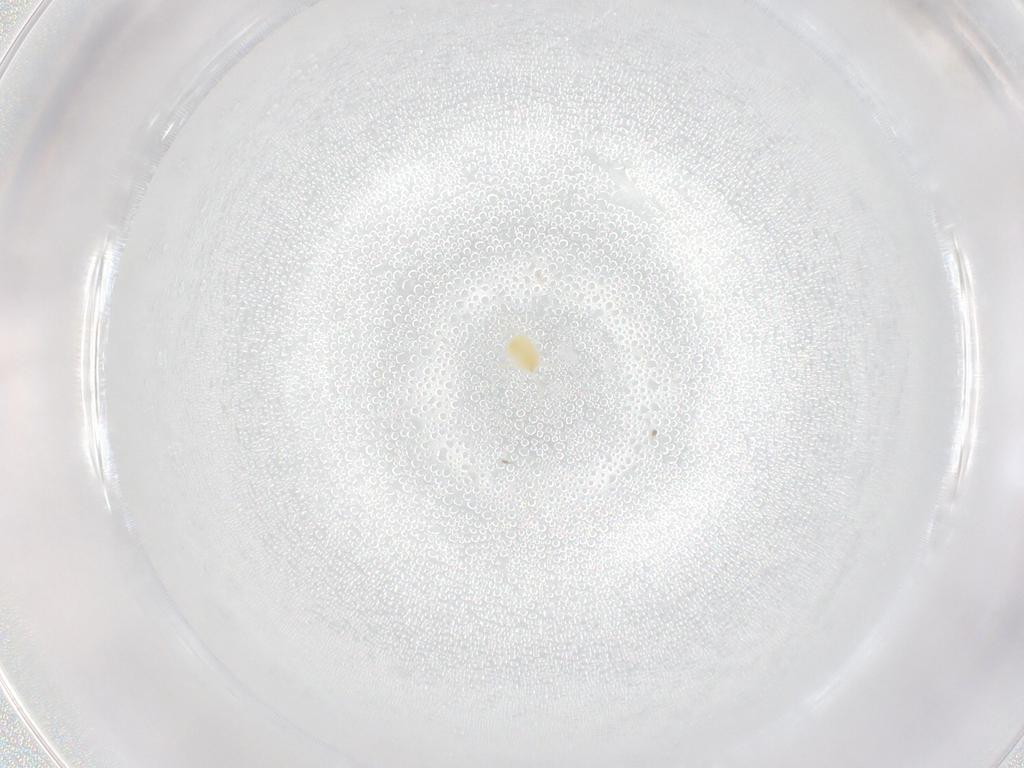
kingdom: Animalia
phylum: Arthropoda
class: Arachnida
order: Trombidiformes
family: Tetranychidae
